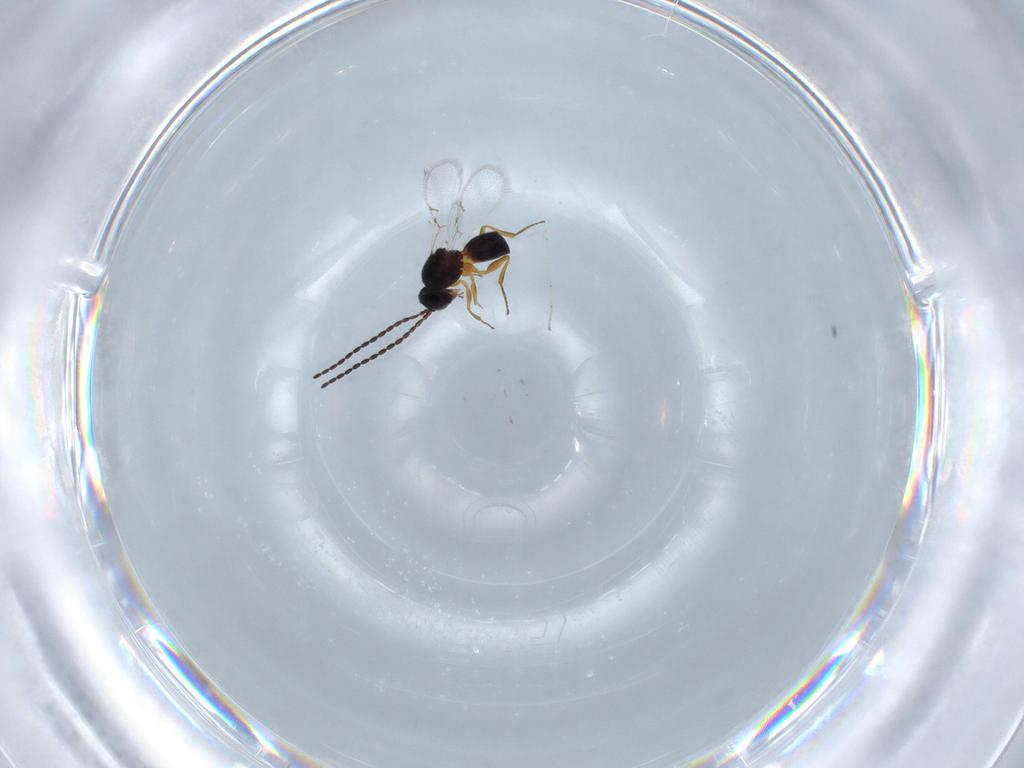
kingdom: Animalia
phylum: Arthropoda
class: Insecta
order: Hymenoptera
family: Figitidae
